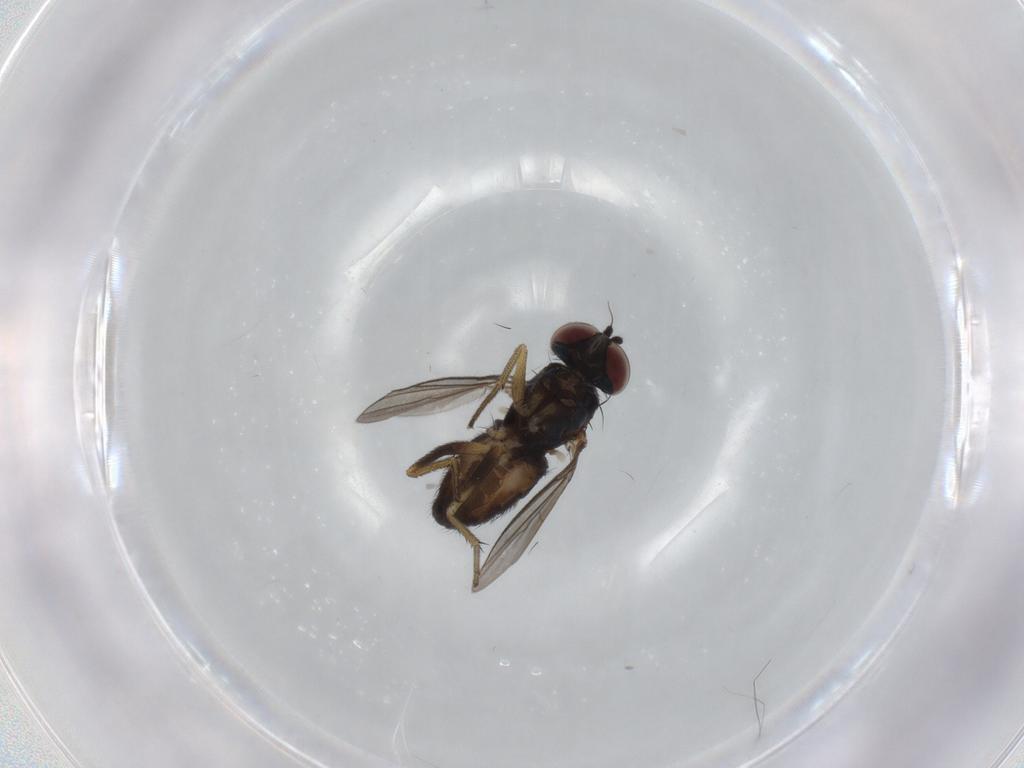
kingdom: Animalia
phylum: Arthropoda
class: Insecta
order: Diptera
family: Dolichopodidae
